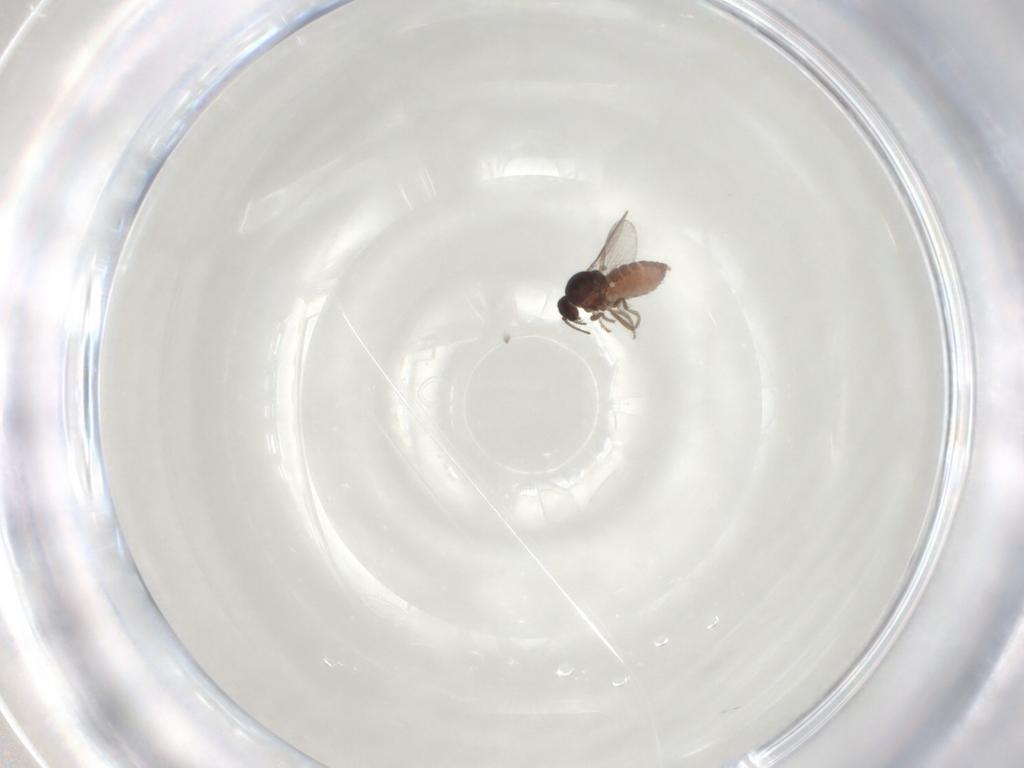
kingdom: Animalia
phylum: Arthropoda
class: Insecta
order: Diptera
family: Ceratopogonidae
